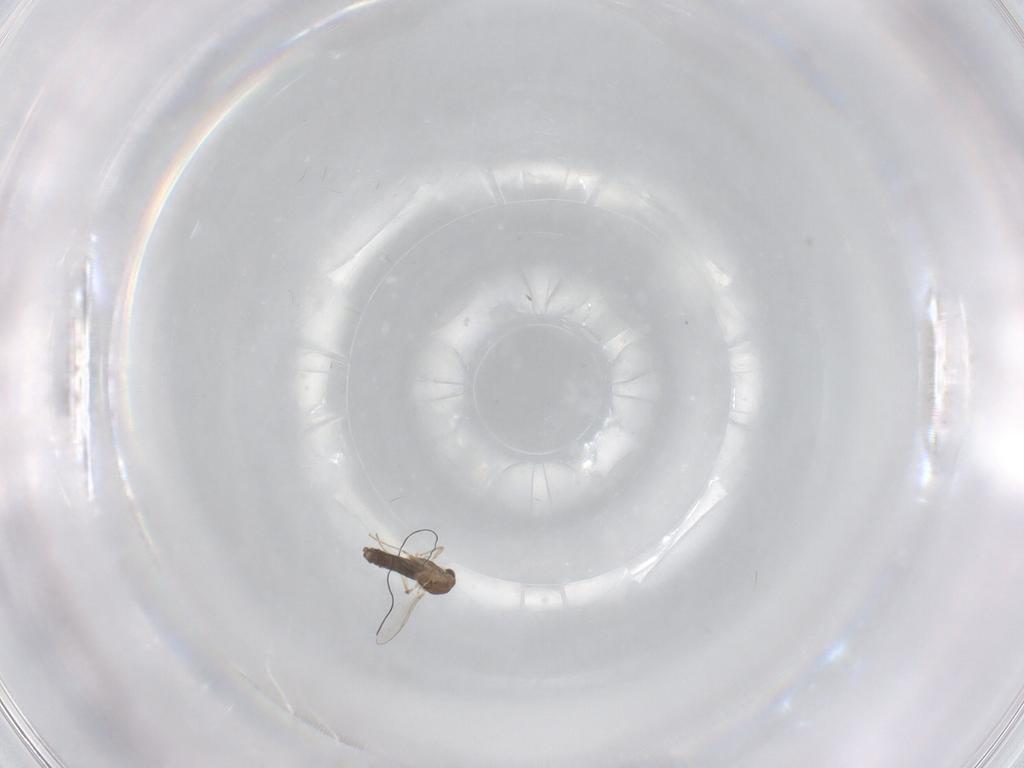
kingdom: Animalia
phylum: Arthropoda
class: Insecta
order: Diptera
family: Chironomidae
